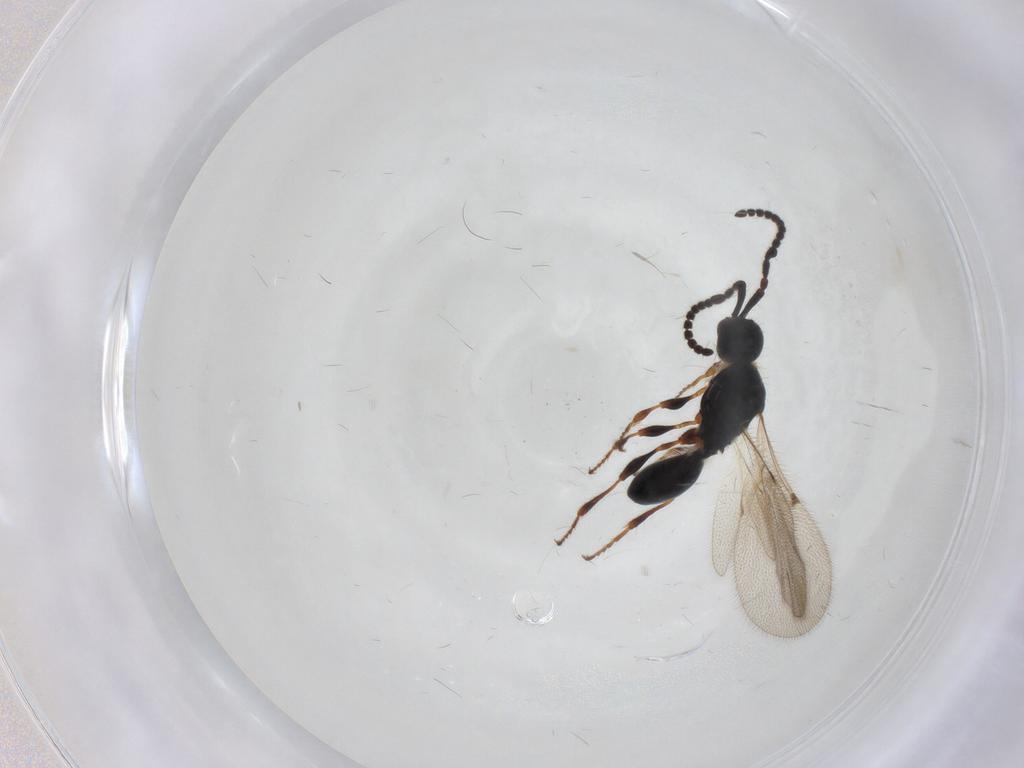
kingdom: Animalia
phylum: Arthropoda
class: Insecta
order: Hymenoptera
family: Diapriidae
